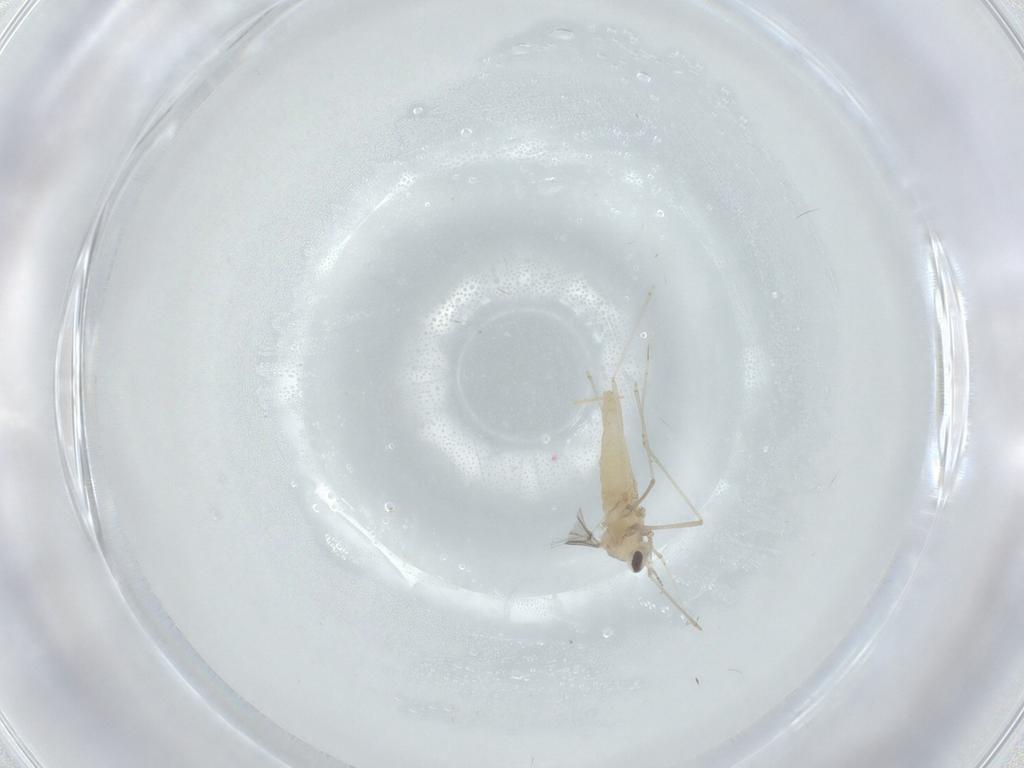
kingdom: Animalia
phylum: Arthropoda
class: Insecta
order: Diptera
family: Cecidomyiidae
